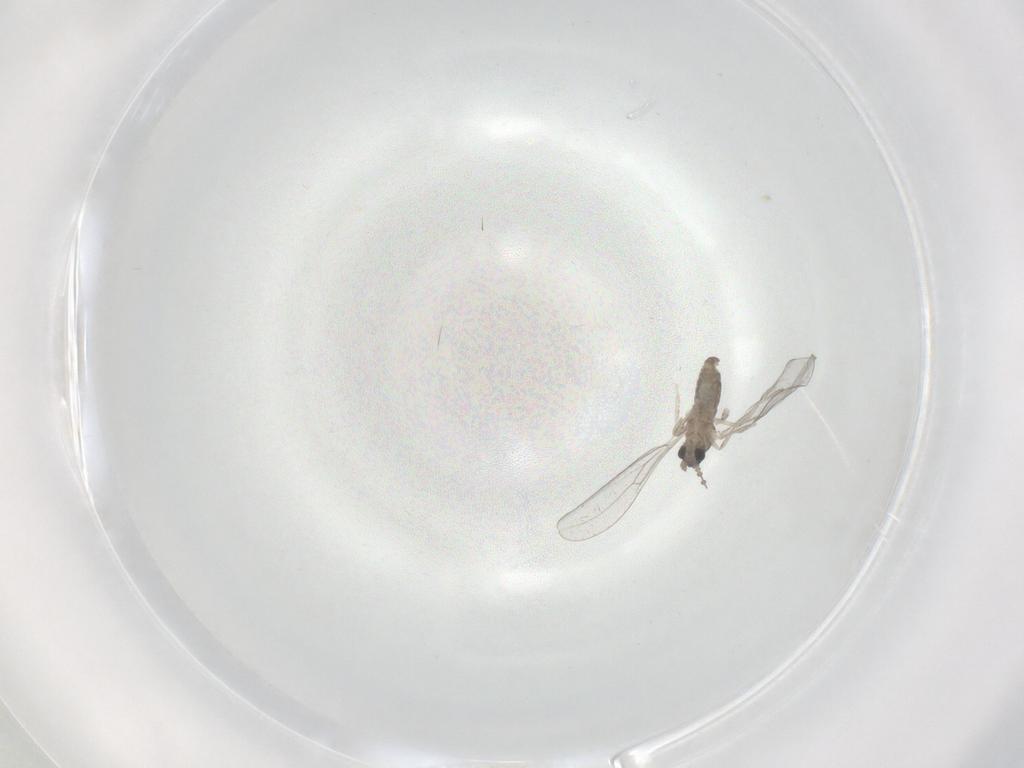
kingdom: Animalia
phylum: Arthropoda
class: Insecta
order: Diptera
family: Cecidomyiidae
